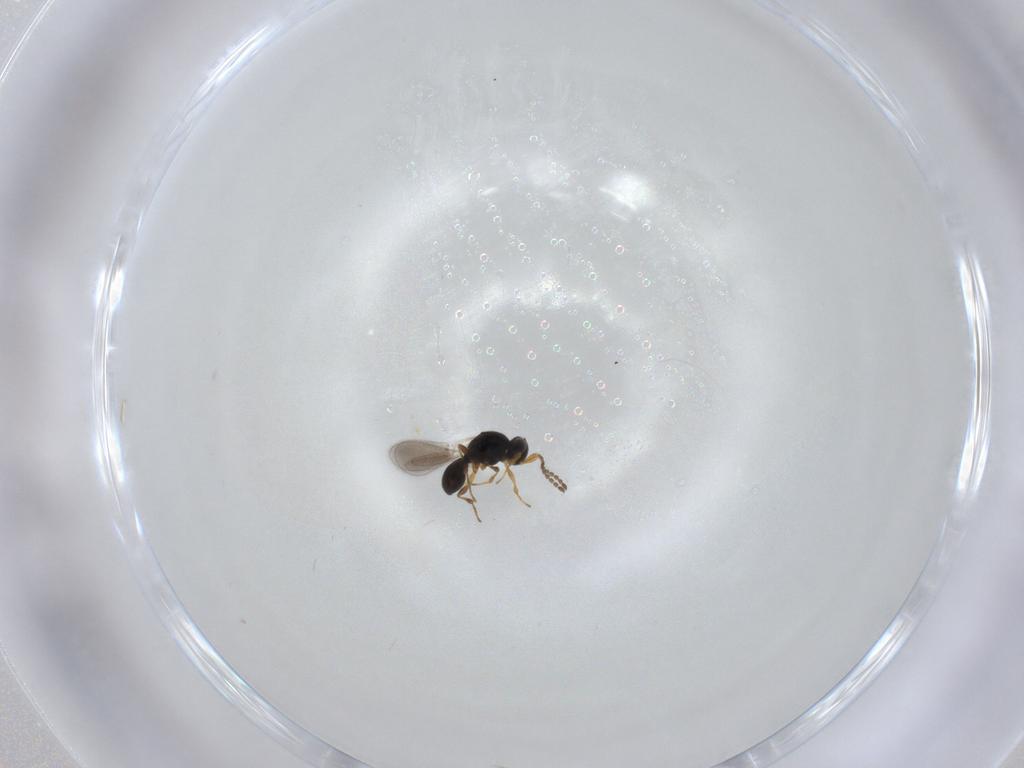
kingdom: Animalia
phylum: Arthropoda
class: Insecta
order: Hymenoptera
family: Platygastridae
